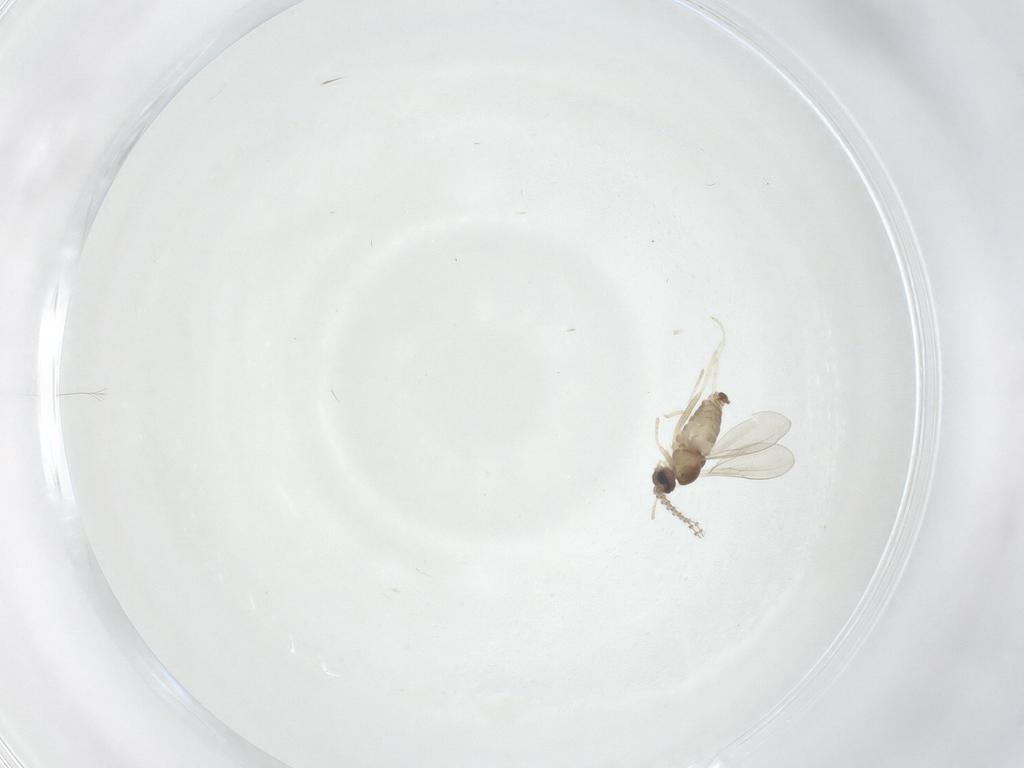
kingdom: Animalia
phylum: Arthropoda
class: Insecta
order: Diptera
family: Cecidomyiidae
